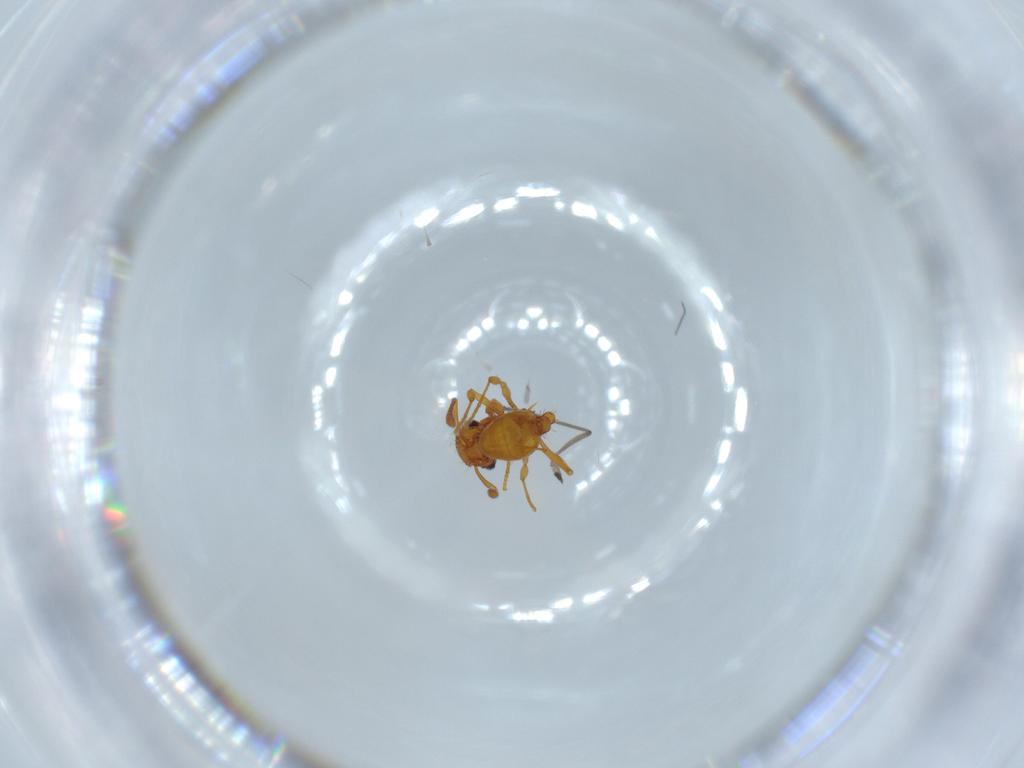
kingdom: Animalia
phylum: Arthropoda
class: Insecta
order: Hymenoptera
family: Formicidae
